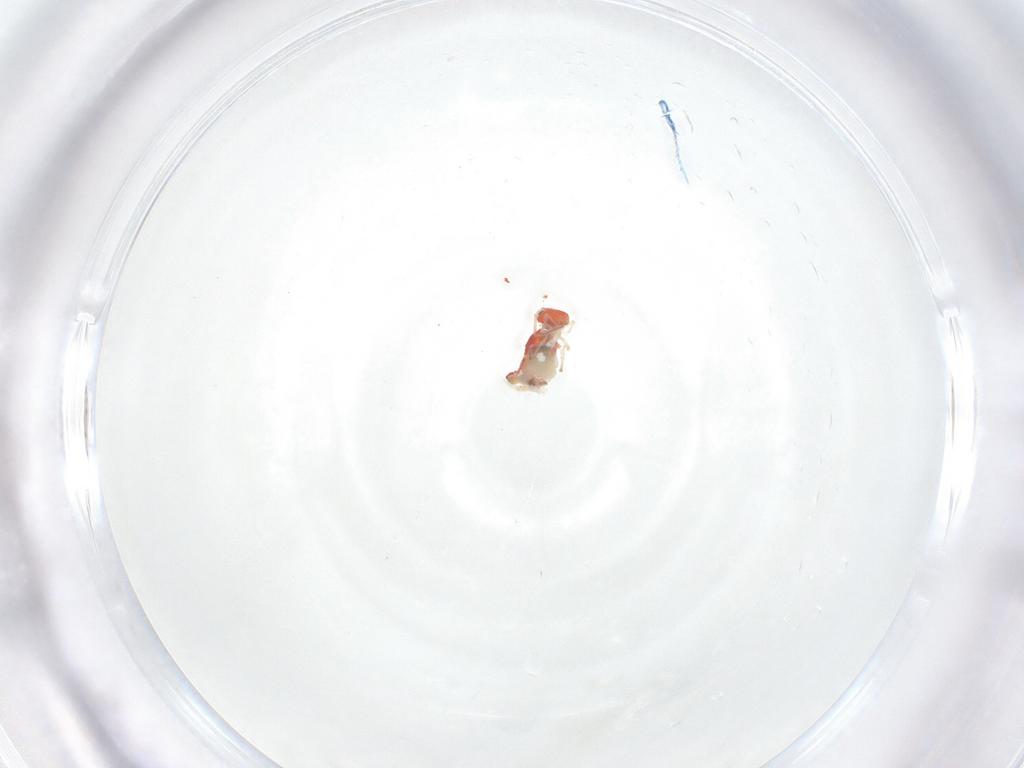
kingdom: Animalia
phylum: Arthropoda
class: Collembola
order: Symphypleona
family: Bourletiellidae
